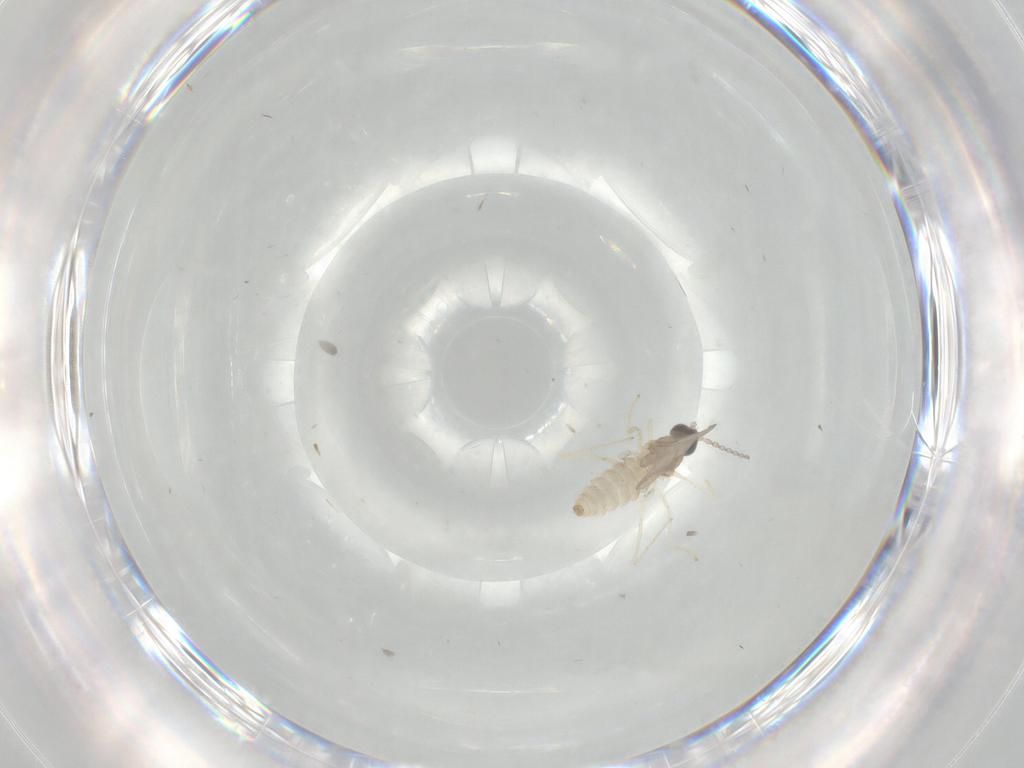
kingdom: Animalia
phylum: Arthropoda
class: Insecta
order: Diptera
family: Cecidomyiidae
